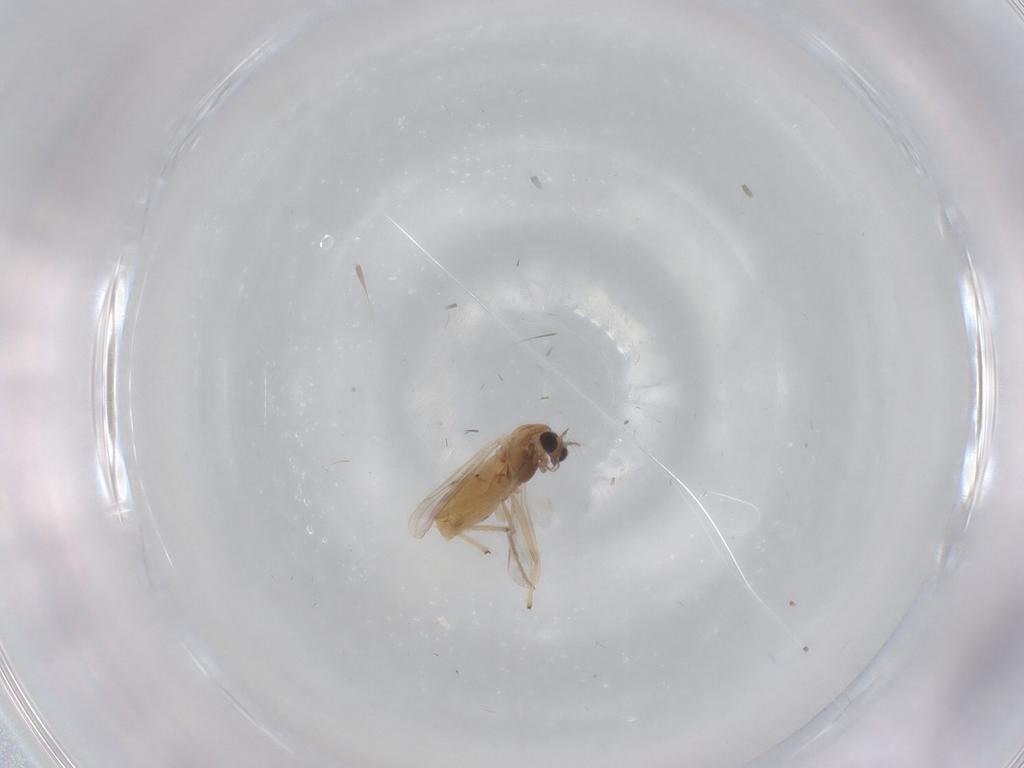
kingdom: Animalia
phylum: Arthropoda
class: Insecta
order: Diptera
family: Chironomidae
